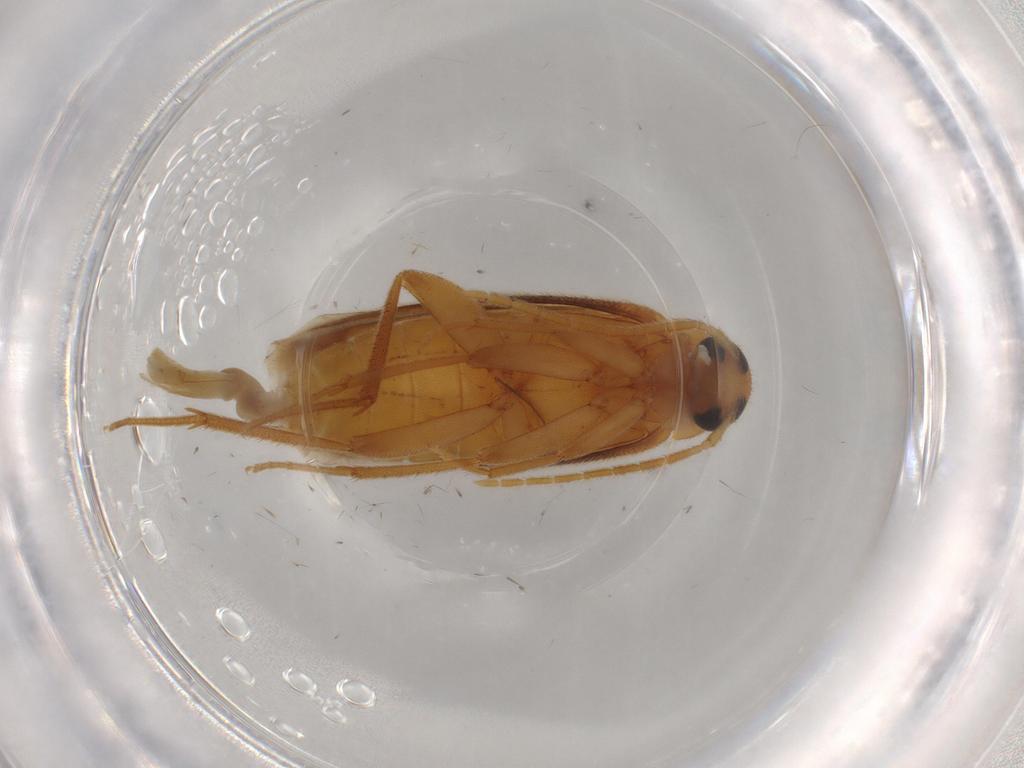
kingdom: Animalia
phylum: Arthropoda
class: Insecta
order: Coleoptera
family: Scraptiidae
